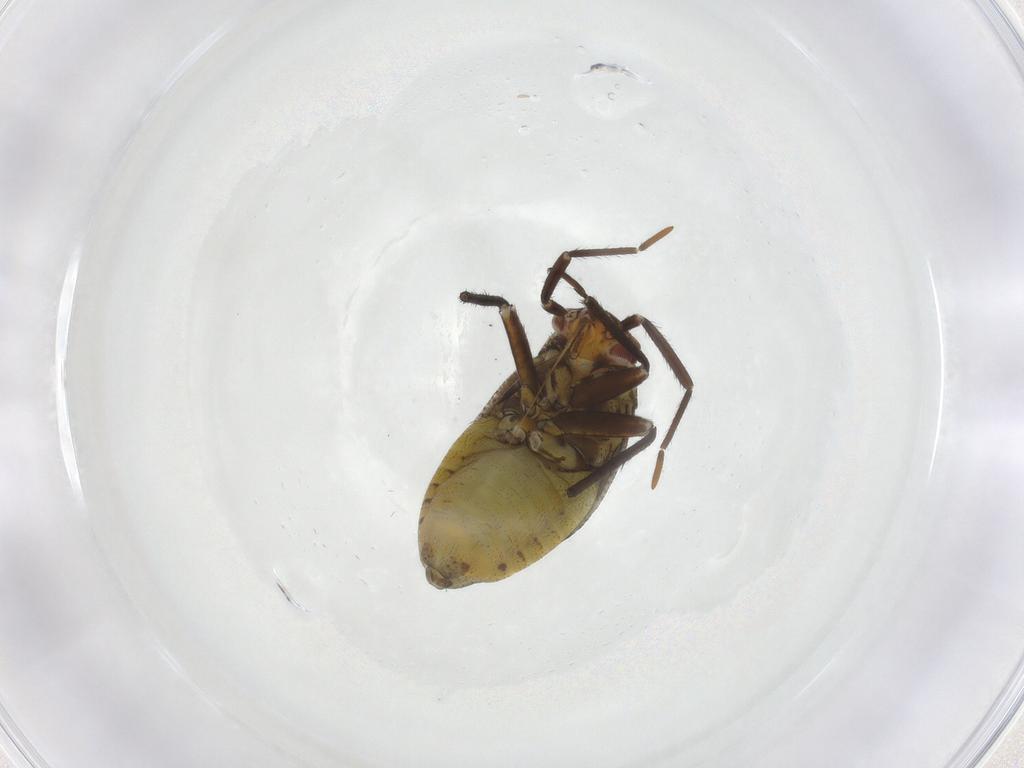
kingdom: Animalia
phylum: Arthropoda
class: Insecta
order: Hemiptera
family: Miridae
